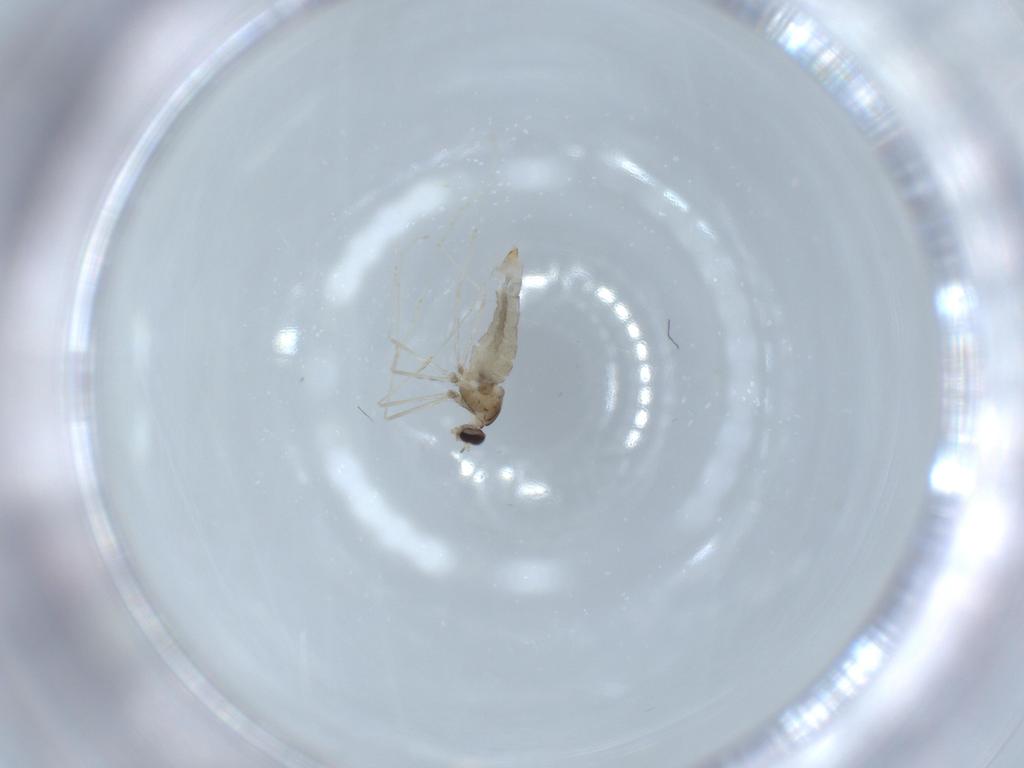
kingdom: Animalia
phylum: Arthropoda
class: Insecta
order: Diptera
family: Cecidomyiidae
